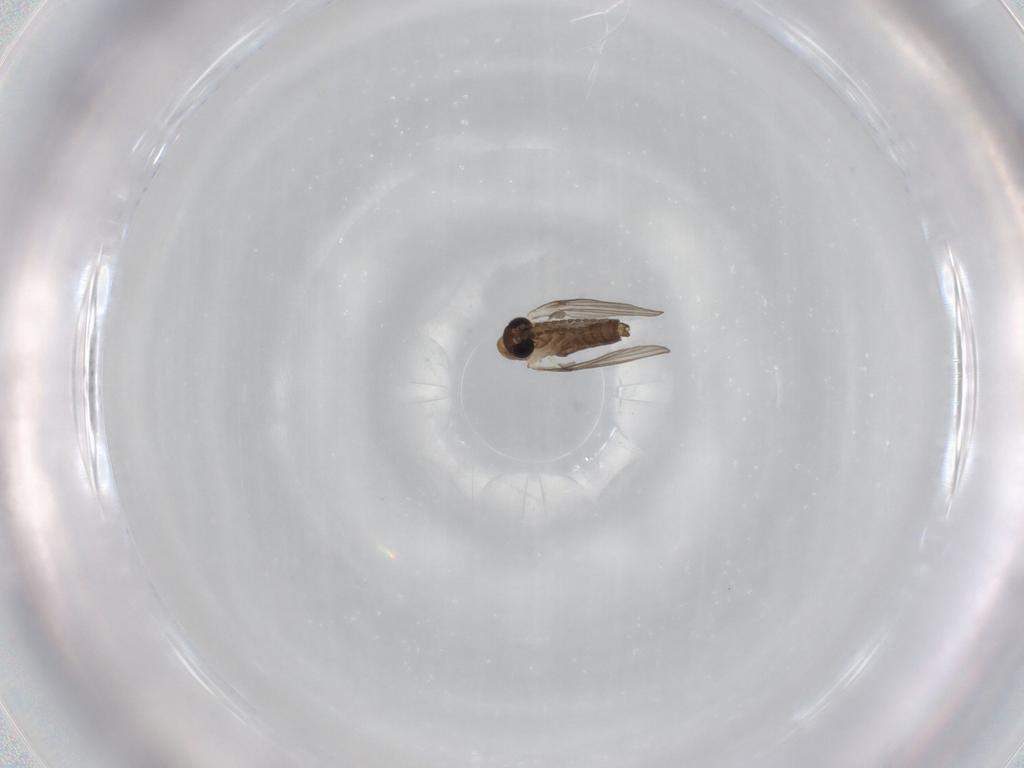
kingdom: Animalia
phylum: Arthropoda
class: Insecta
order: Diptera
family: Psychodidae
